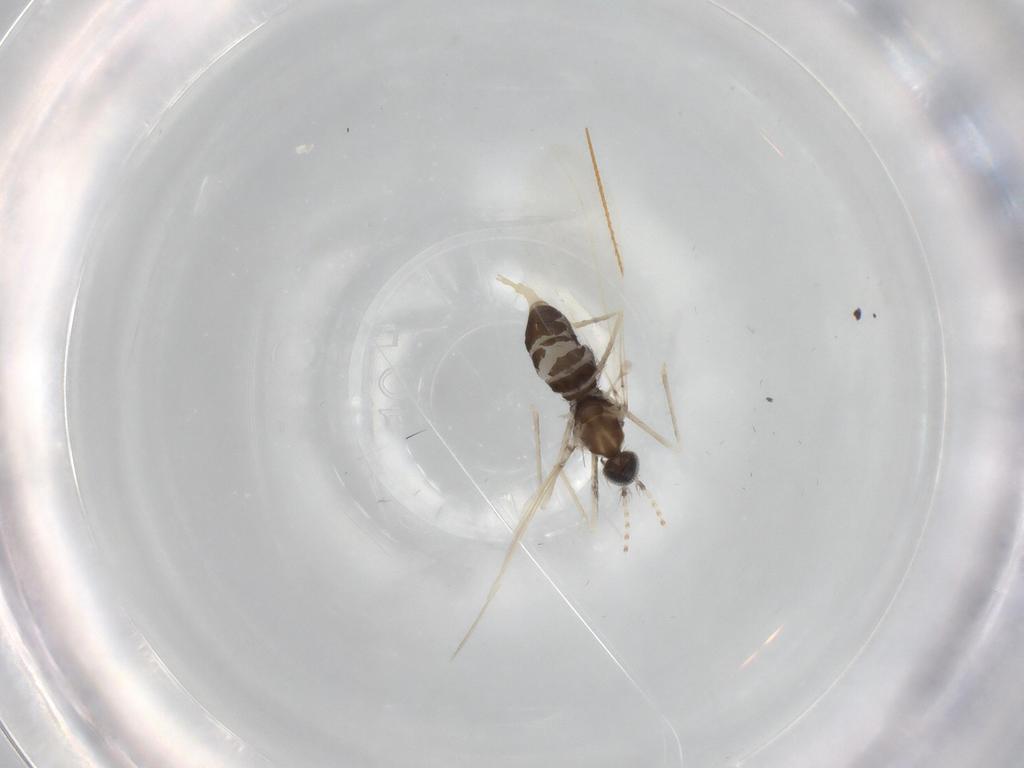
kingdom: Animalia
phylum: Arthropoda
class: Insecta
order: Diptera
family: Cecidomyiidae
